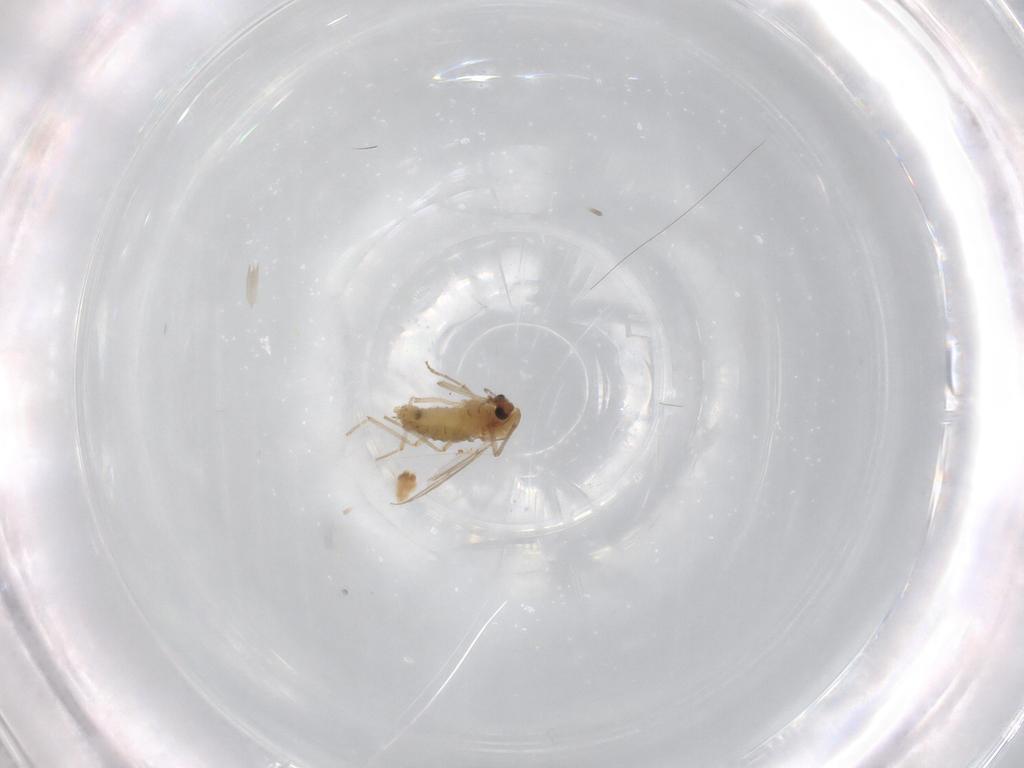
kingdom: Animalia
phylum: Arthropoda
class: Insecta
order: Diptera
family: Chironomidae
